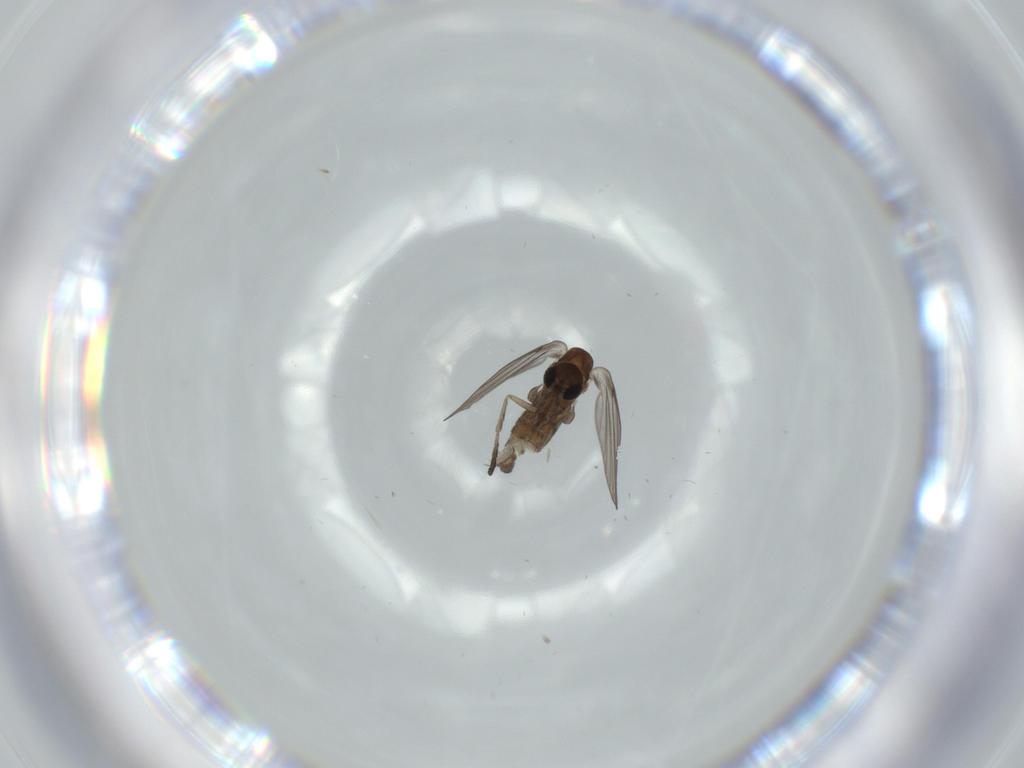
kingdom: Animalia
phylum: Arthropoda
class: Insecta
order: Diptera
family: Psychodidae
